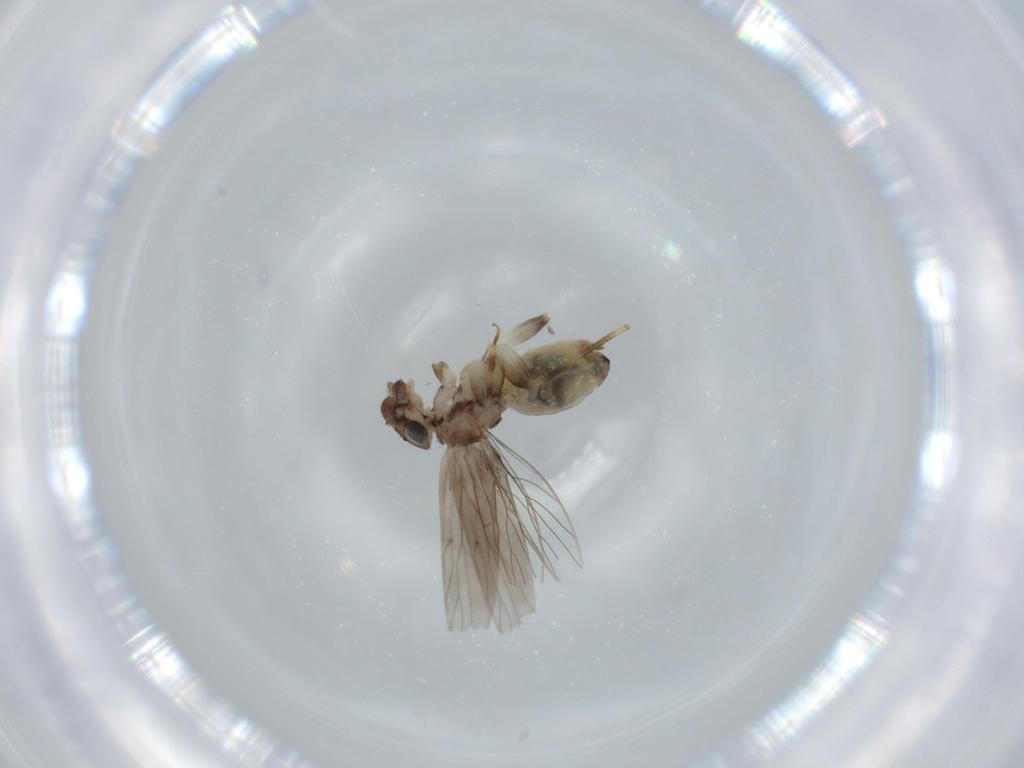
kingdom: Animalia
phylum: Arthropoda
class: Insecta
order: Psocodea
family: Lepidopsocidae
